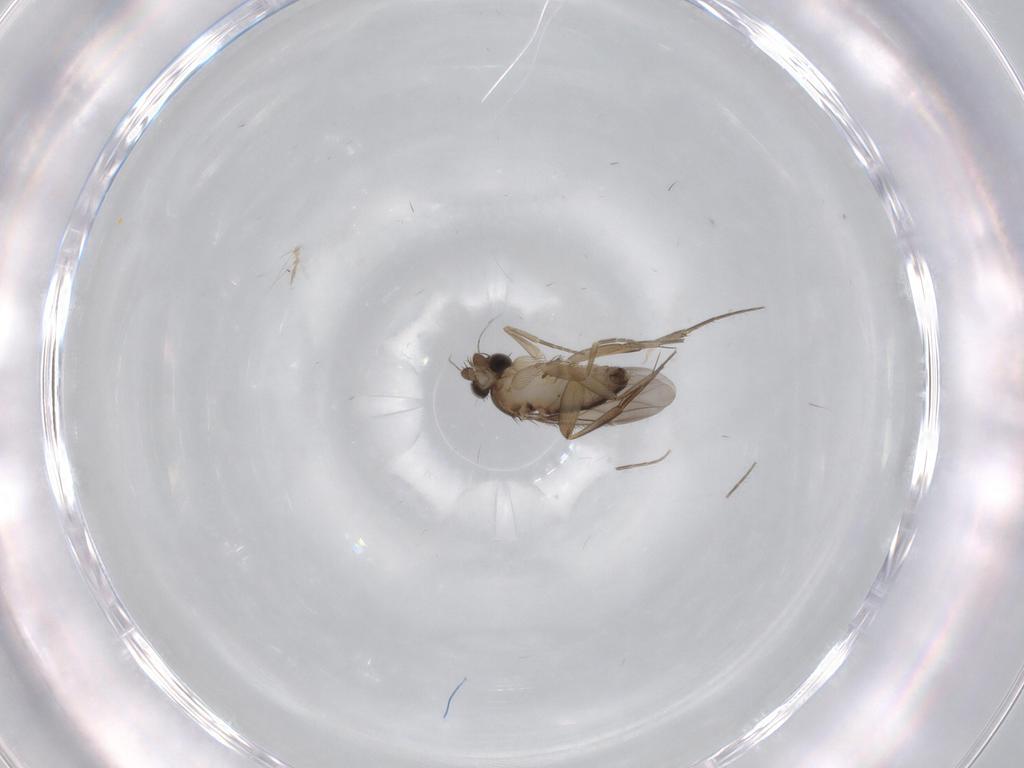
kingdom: Animalia
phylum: Arthropoda
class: Insecta
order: Diptera
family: Phoridae
